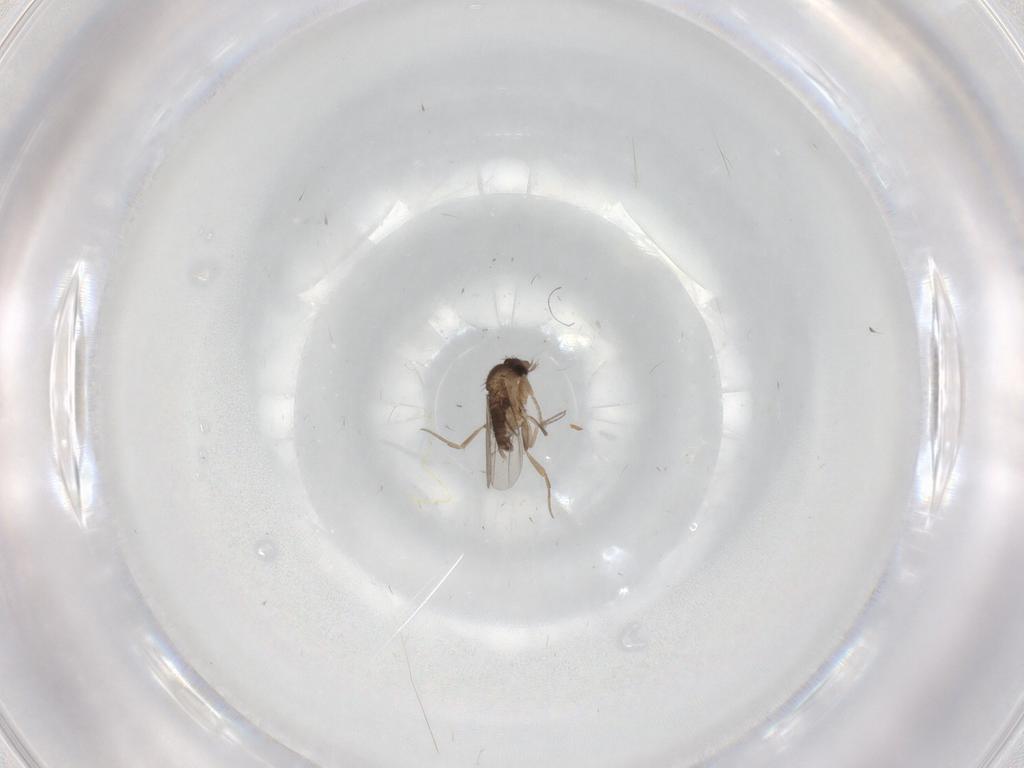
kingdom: Animalia
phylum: Arthropoda
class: Insecta
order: Diptera
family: Phoridae
